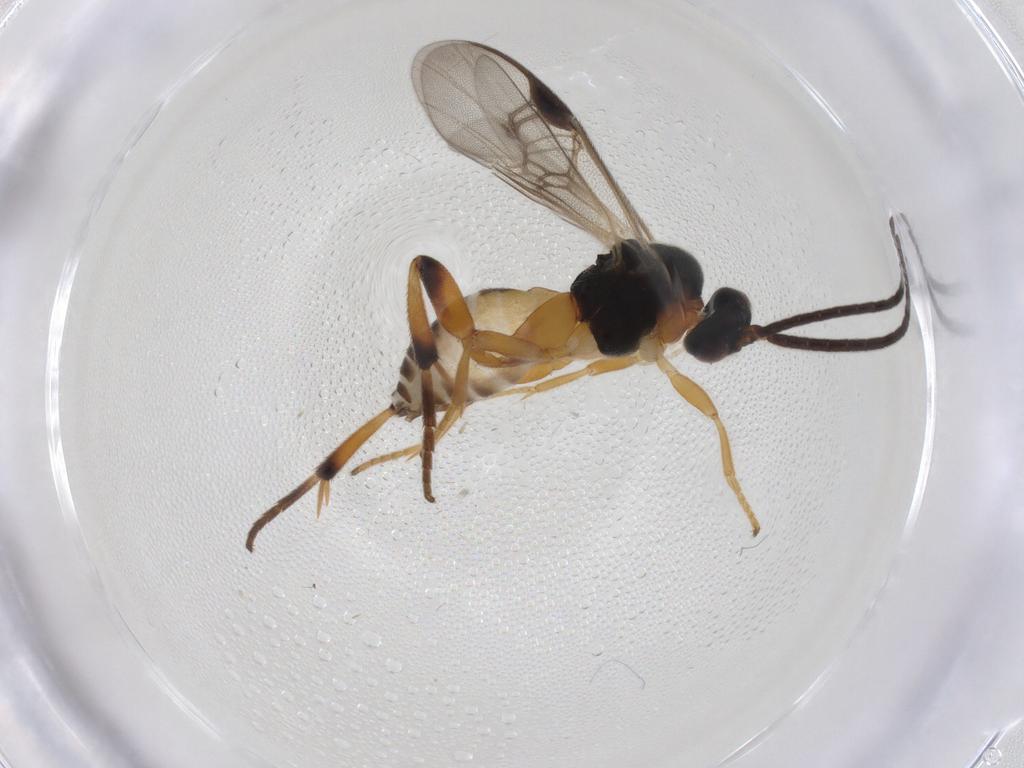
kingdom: Animalia
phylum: Arthropoda
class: Insecta
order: Hymenoptera
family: Braconidae
